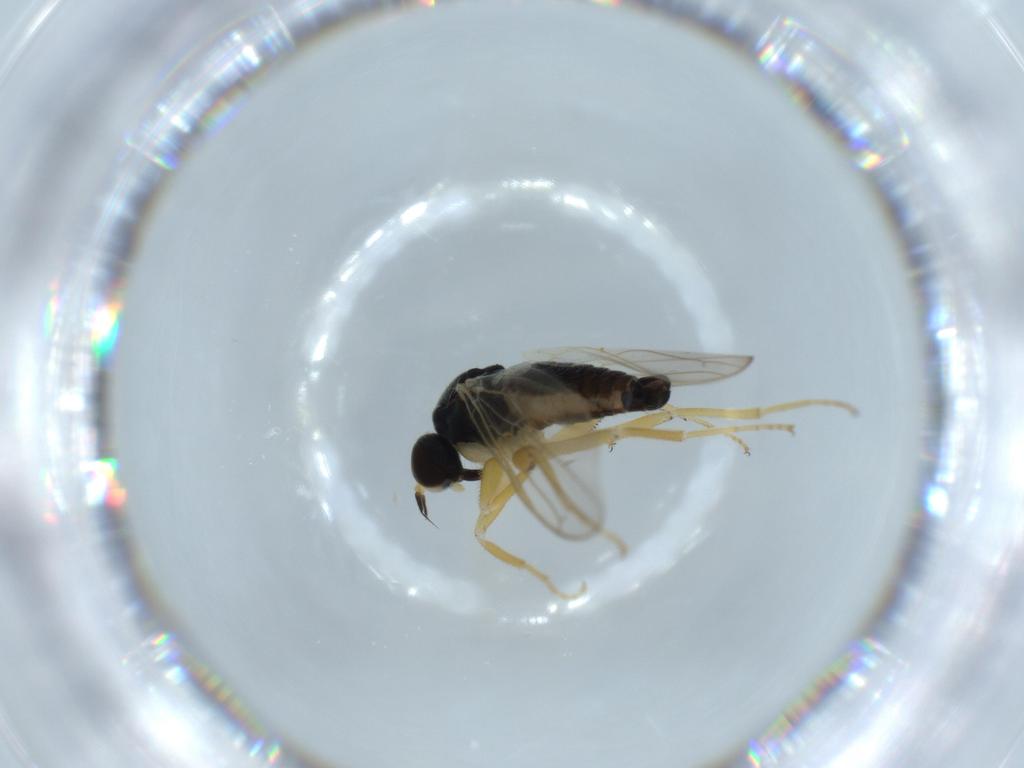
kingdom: Animalia
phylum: Arthropoda
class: Insecta
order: Diptera
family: Hybotidae
